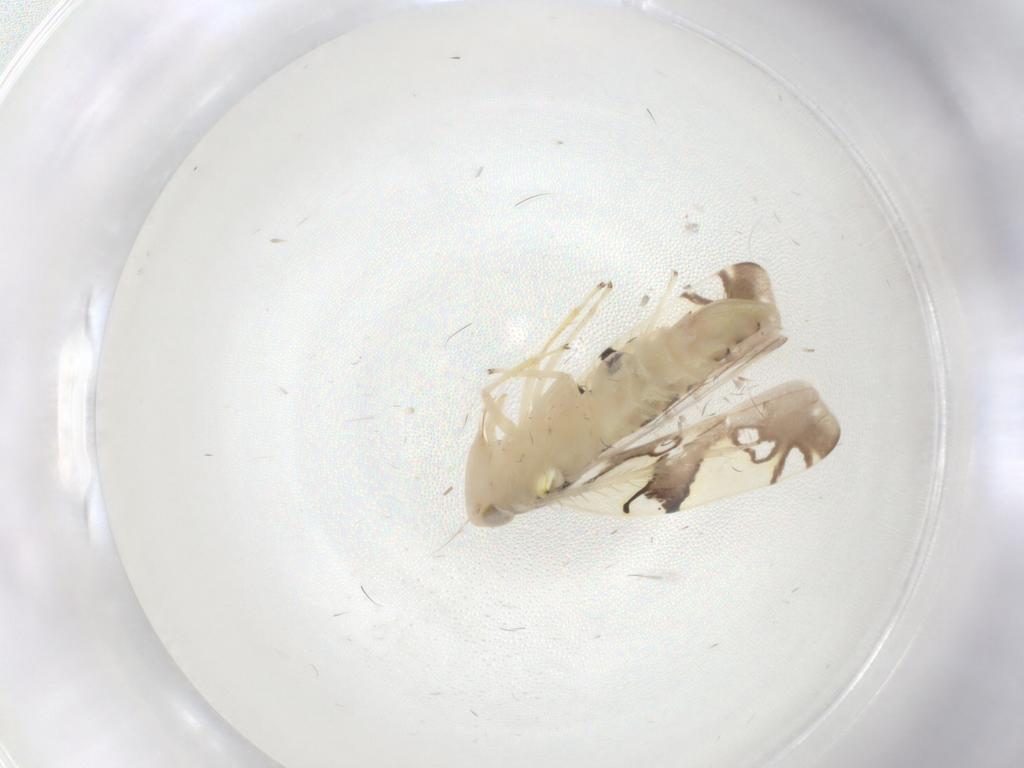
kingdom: Animalia
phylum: Arthropoda
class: Insecta
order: Hemiptera
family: Cicadellidae
